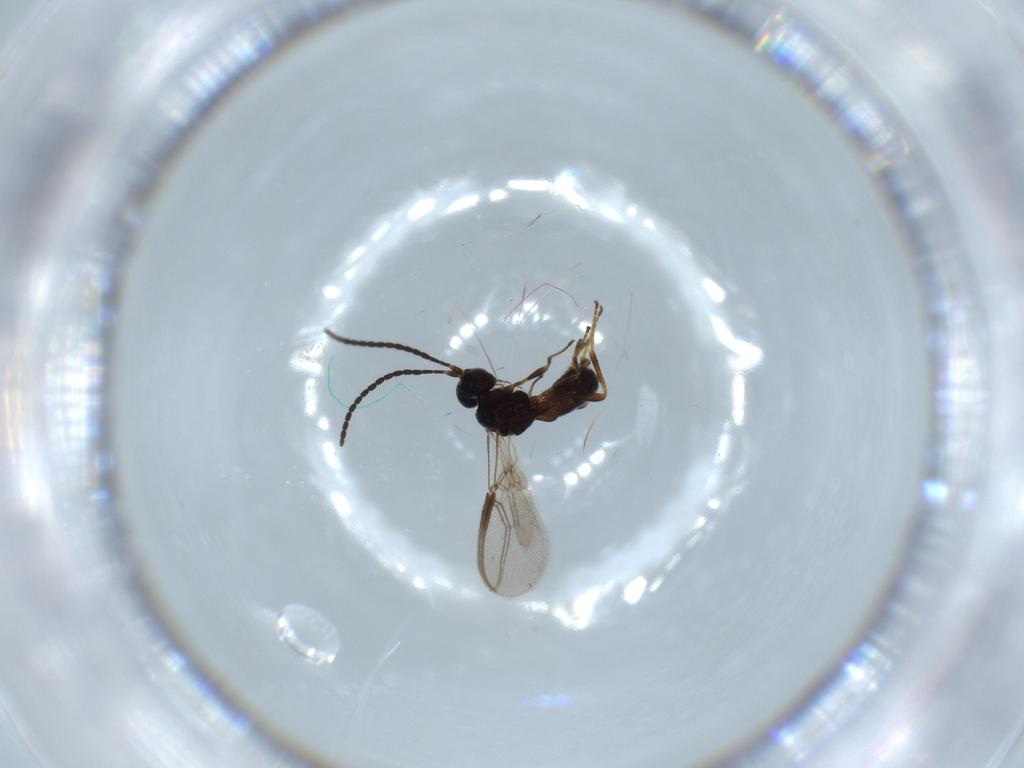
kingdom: Animalia
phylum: Arthropoda
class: Insecta
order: Hymenoptera
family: Braconidae
